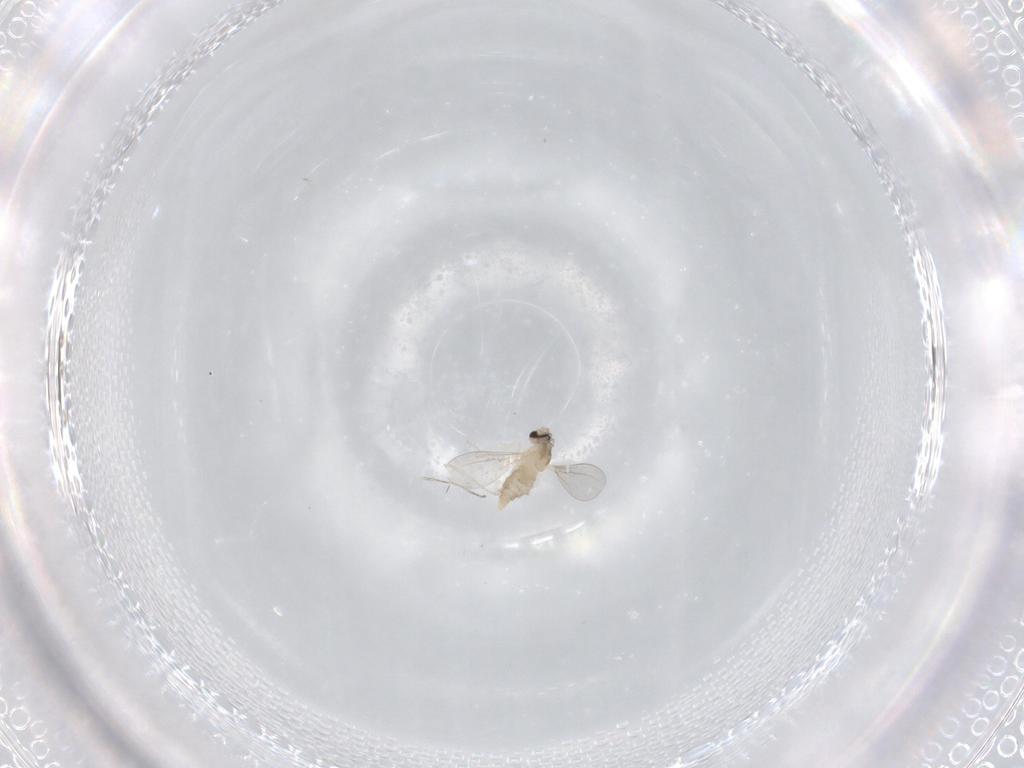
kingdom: Animalia
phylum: Arthropoda
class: Insecta
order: Diptera
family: Cecidomyiidae
